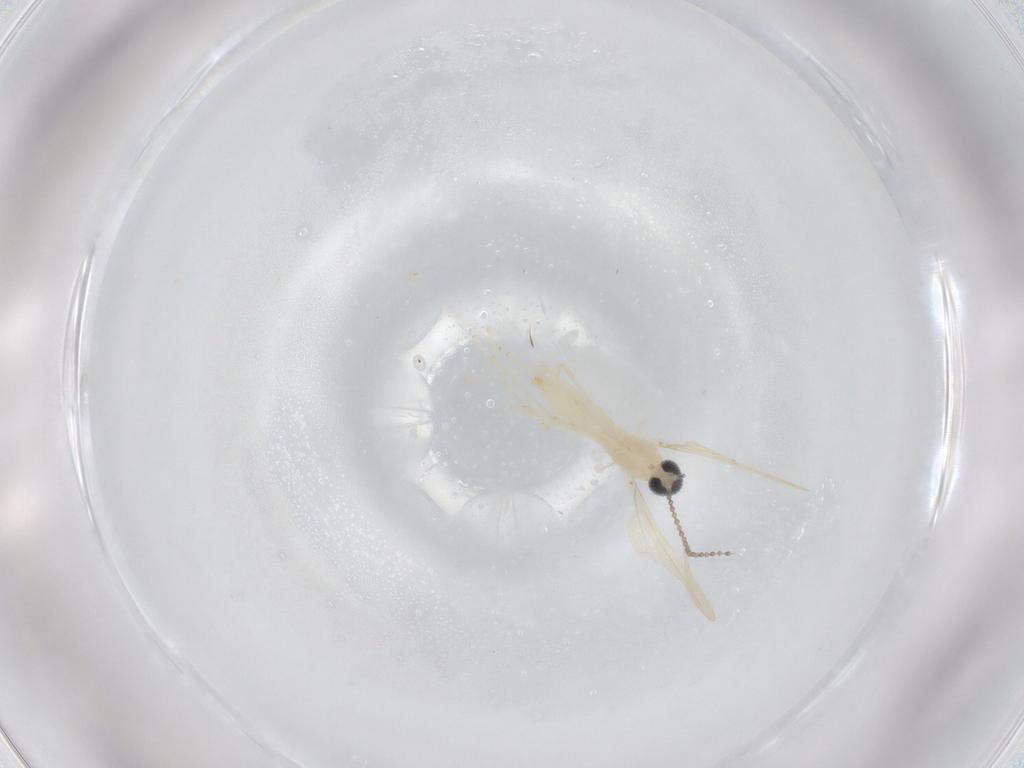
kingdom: Animalia
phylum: Arthropoda
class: Insecta
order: Diptera
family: Cecidomyiidae
